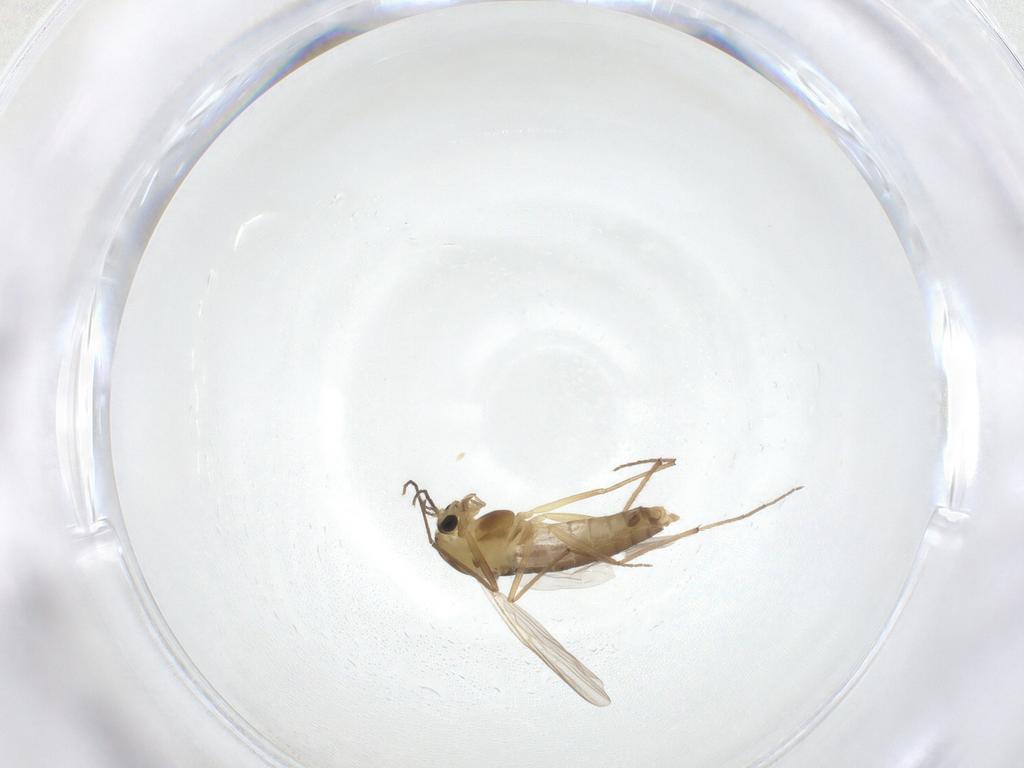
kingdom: Animalia
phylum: Arthropoda
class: Insecta
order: Diptera
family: Chironomidae
